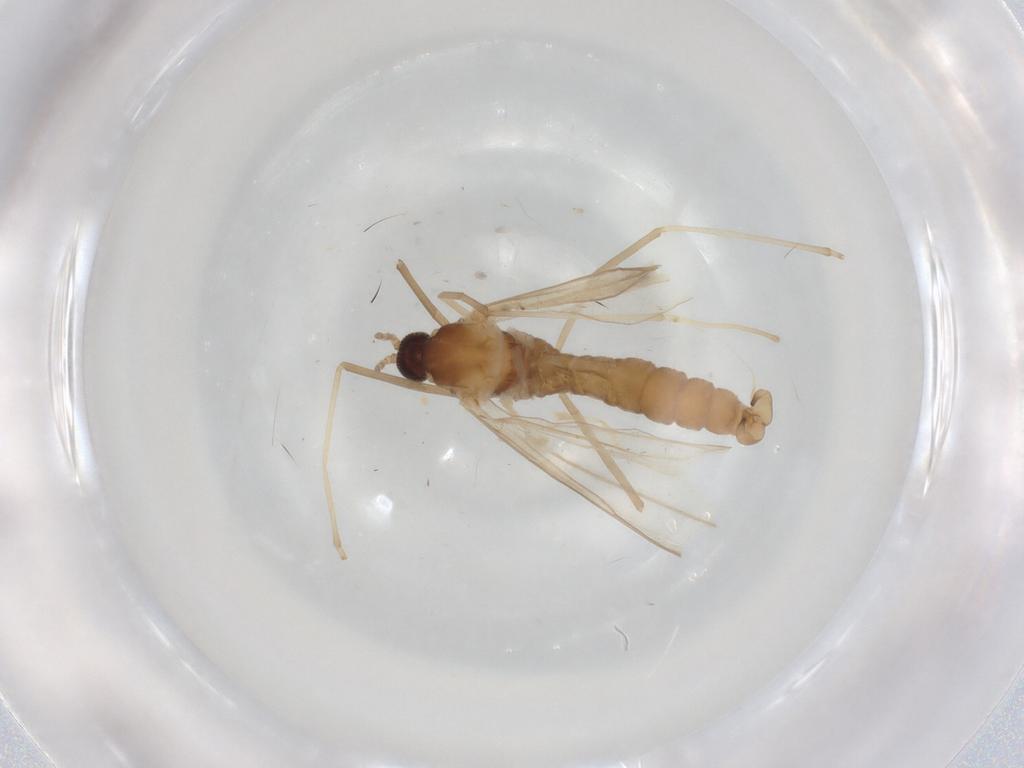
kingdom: Animalia
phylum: Arthropoda
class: Insecta
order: Diptera
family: Cecidomyiidae
